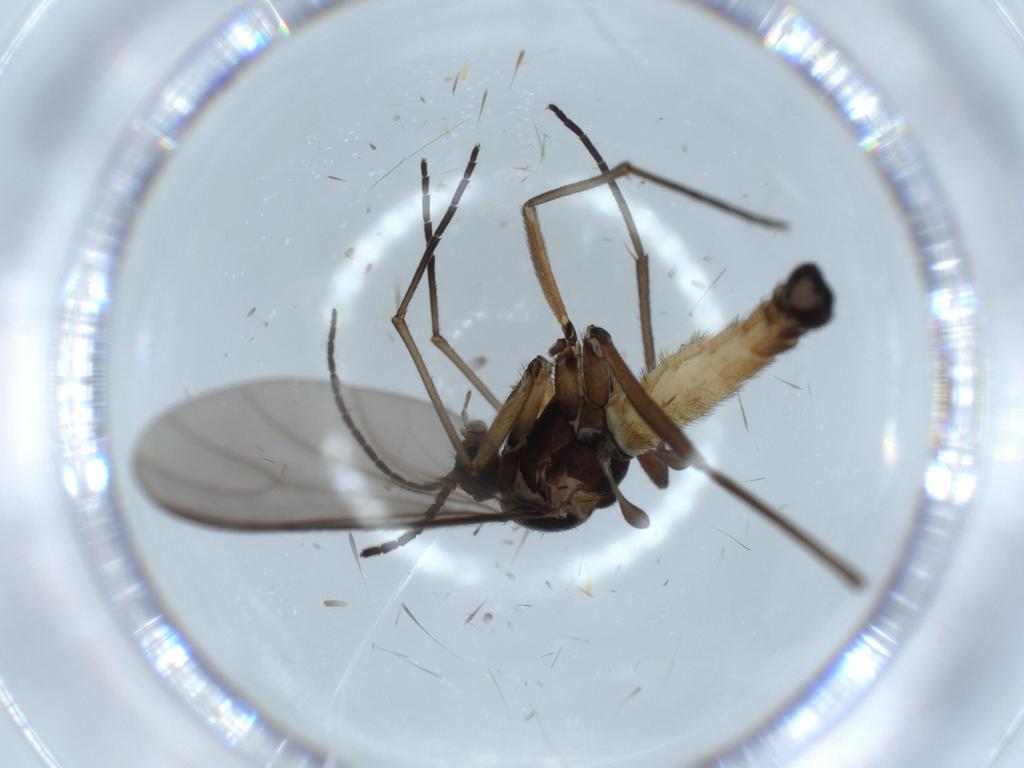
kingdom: Animalia
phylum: Arthropoda
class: Insecta
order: Diptera
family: Sciaridae
